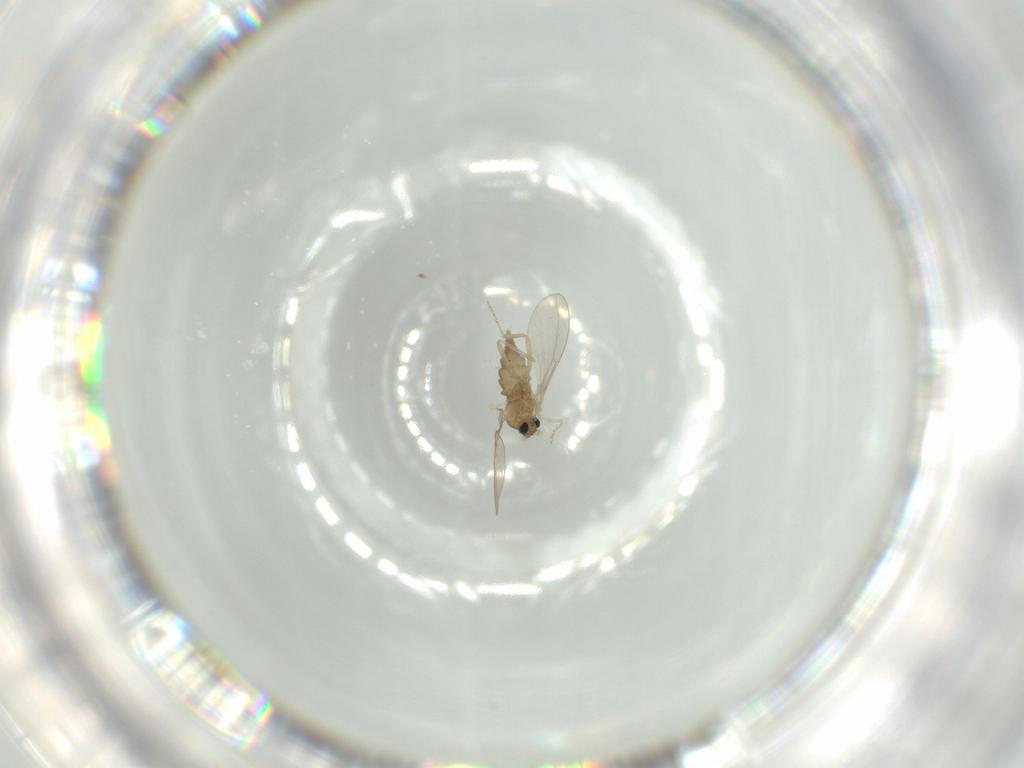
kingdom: Animalia
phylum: Arthropoda
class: Insecta
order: Diptera
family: Cecidomyiidae
